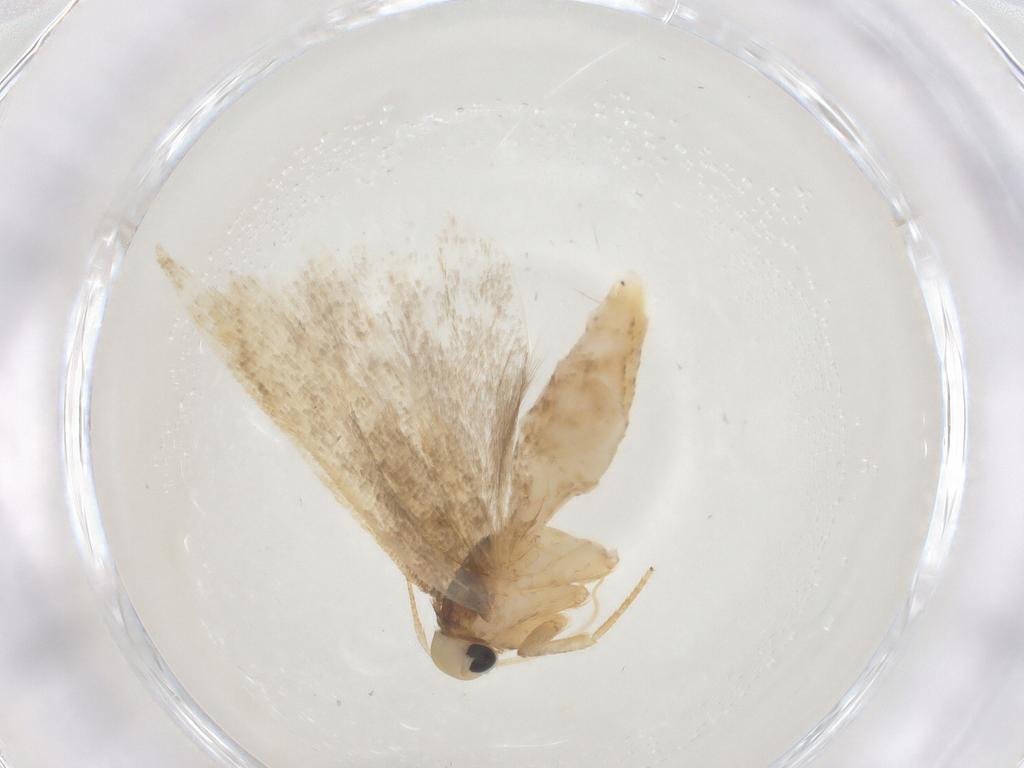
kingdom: Animalia
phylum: Arthropoda
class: Insecta
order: Lepidoptera
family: Gelechiidae
